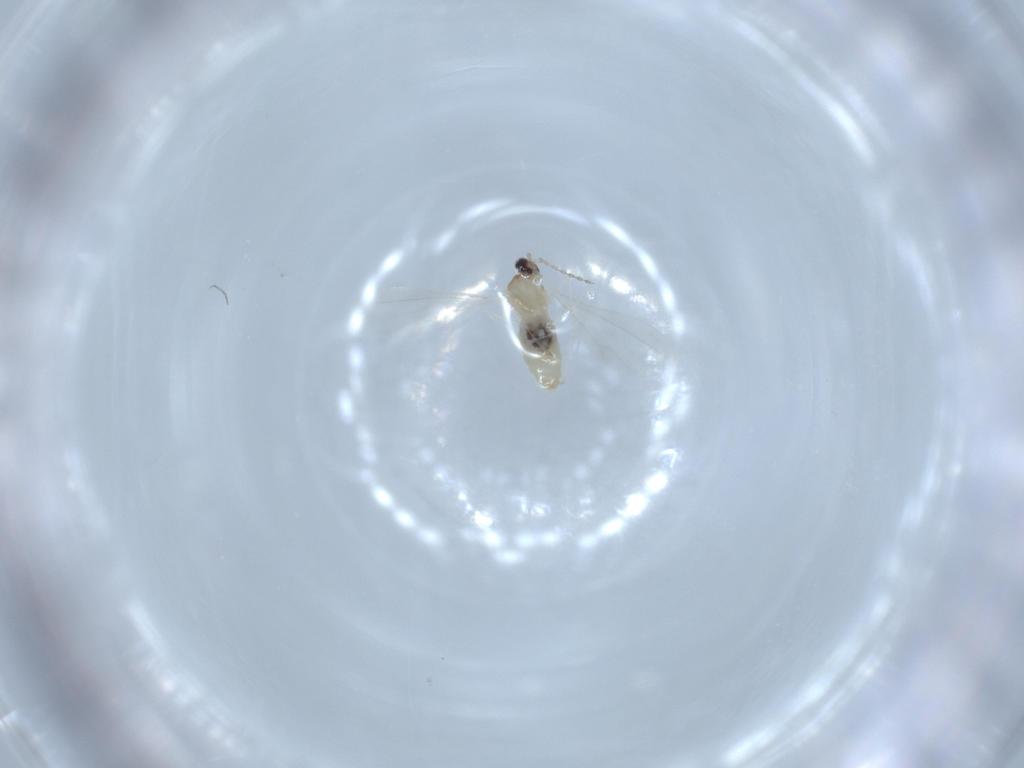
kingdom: Animalia
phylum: Arthropoda
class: Insecta
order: Diptera
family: Cecidomyiidae
